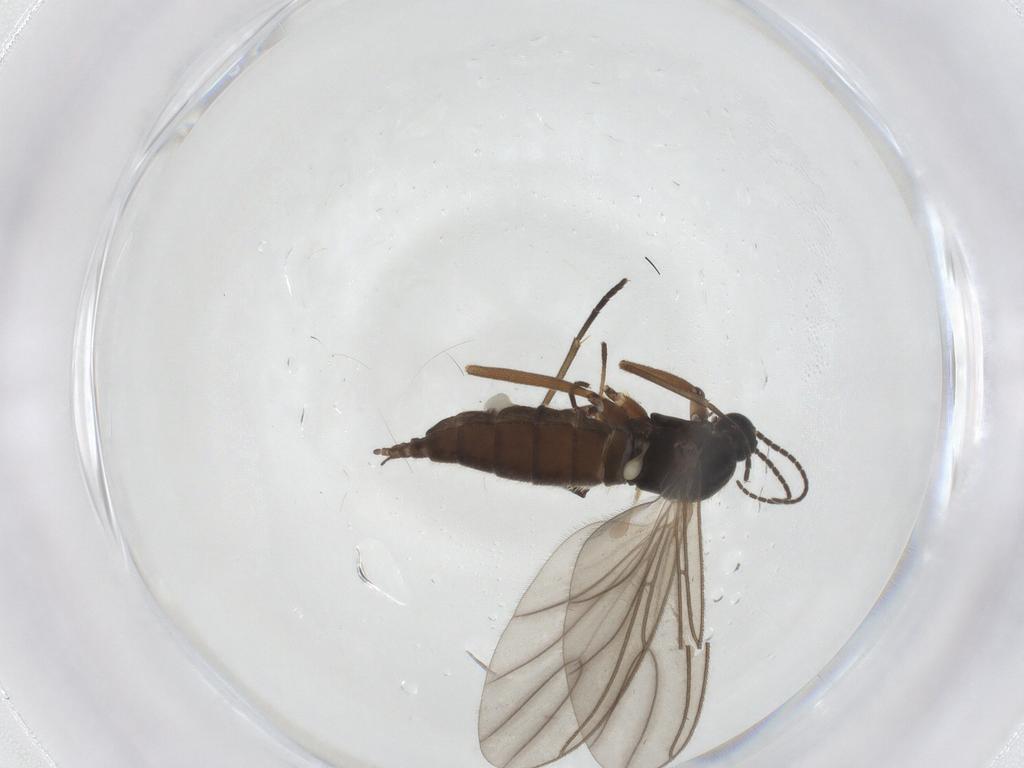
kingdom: Animalia
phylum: Arthropoda
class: Insecta
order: Diptera
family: Sciaridae
